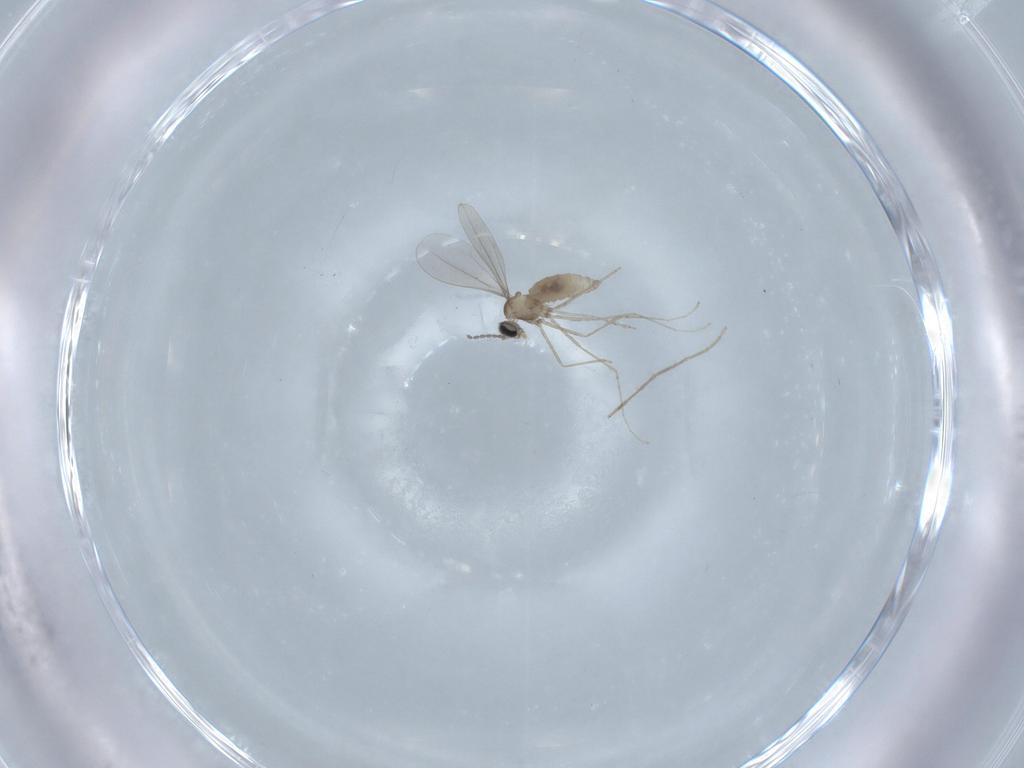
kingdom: Animalia
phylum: Arthropoda
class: Insecta
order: Diptera
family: Cecidomyiidae
